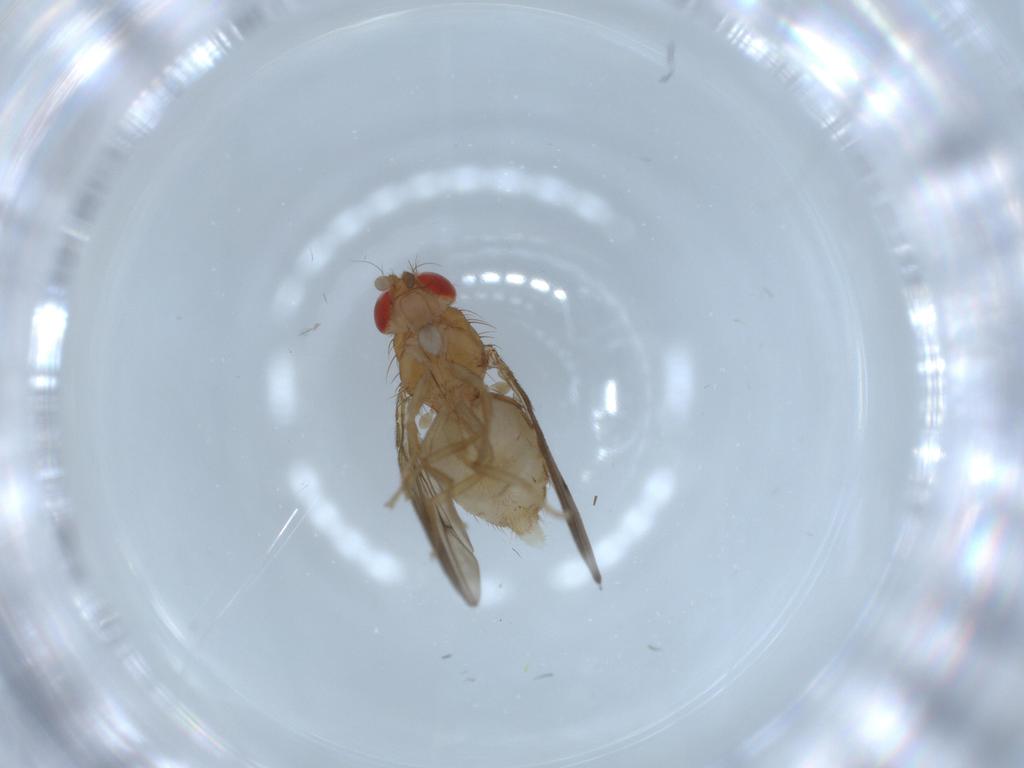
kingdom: Animalia
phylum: Arthropoda
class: Insecta
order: Diptera
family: Drosophilidae
